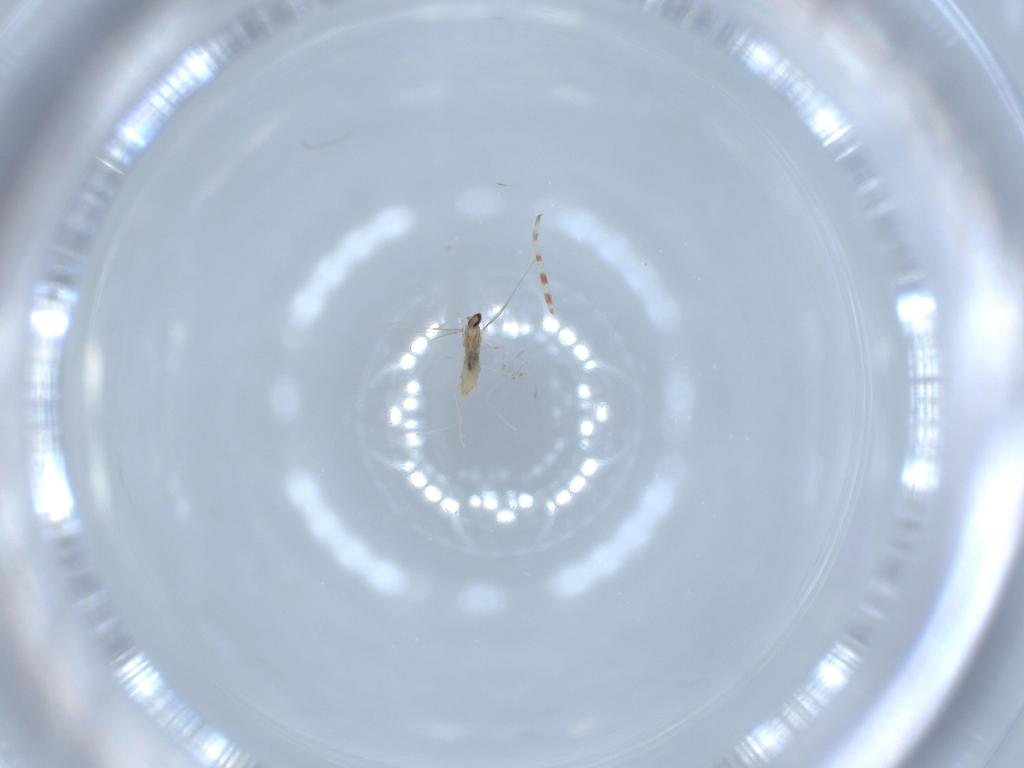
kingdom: Animalia
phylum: Arthropoda
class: Insecta
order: Diptera
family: Cecidomyiidae
